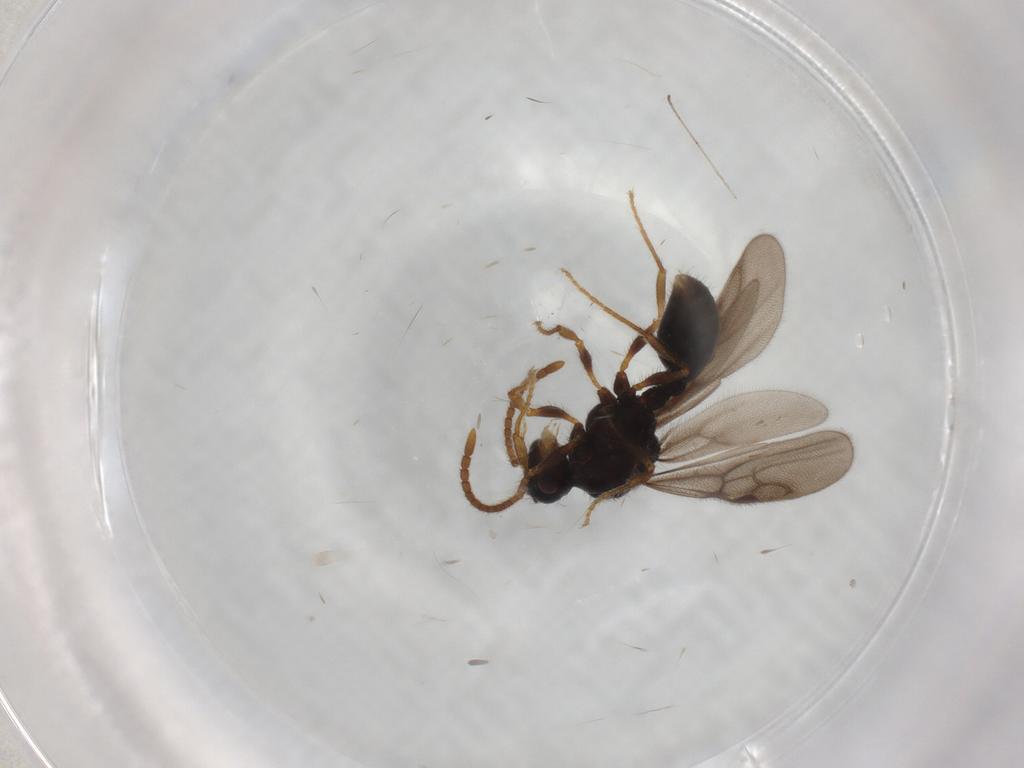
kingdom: Animalia
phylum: Arthropoda
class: Insecta
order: Hymenoptera
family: Formicidae
